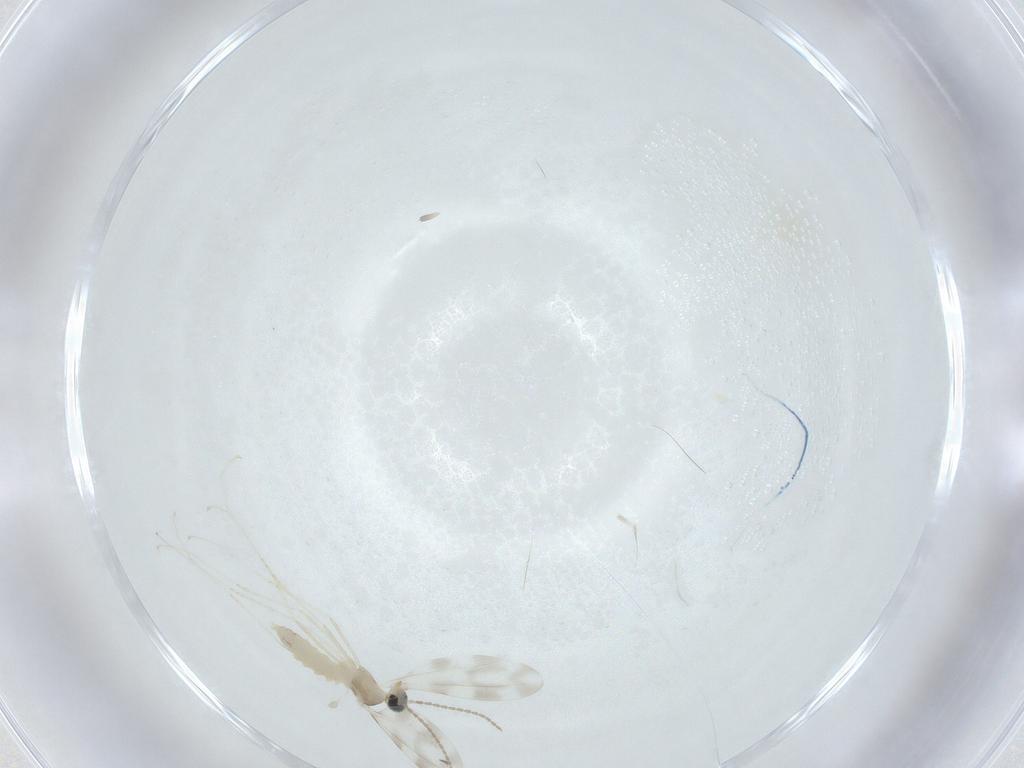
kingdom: Animalia
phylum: Arthropoda
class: Insecta
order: Diptera
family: Cecidomyiidae
